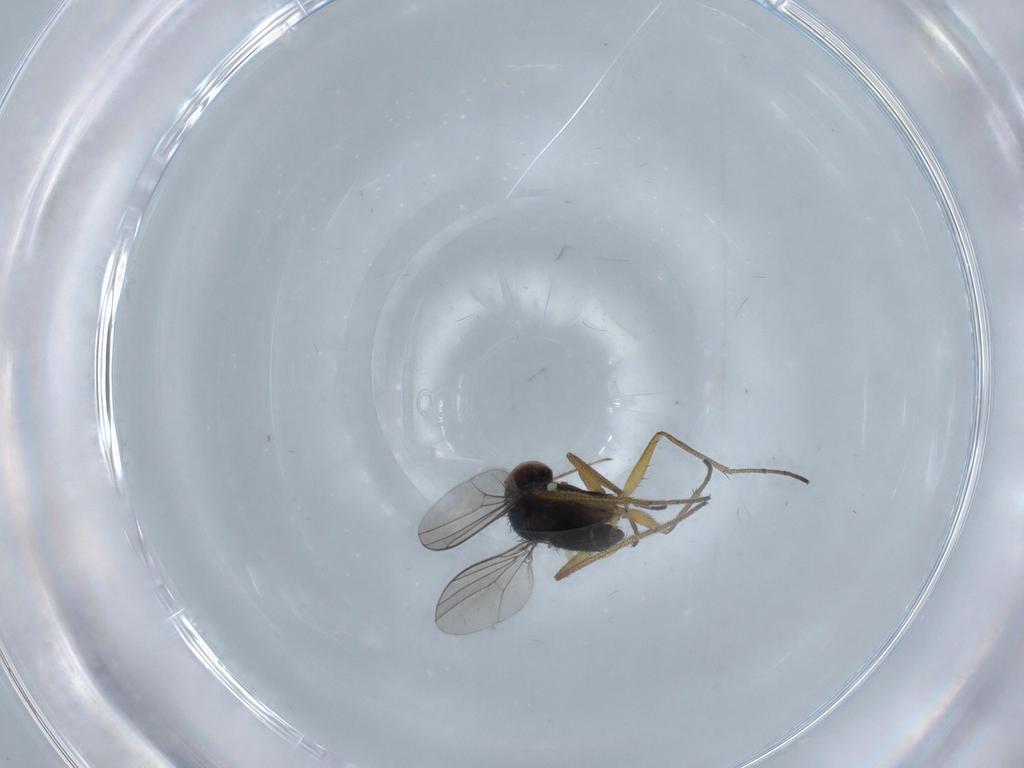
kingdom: Animalia
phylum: Arthropoda
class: Insecta
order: Diptera
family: Dolichopodidae
